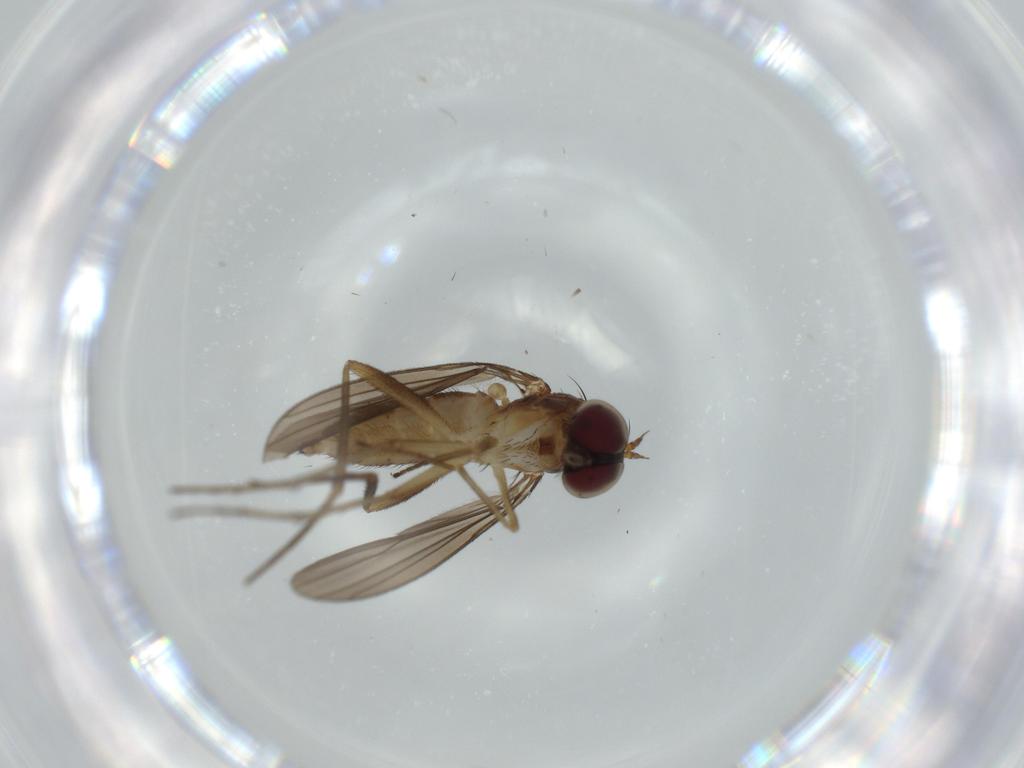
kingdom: Animalia
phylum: Arthropoda
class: Insecta
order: Diptera
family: Dolichopodidae
